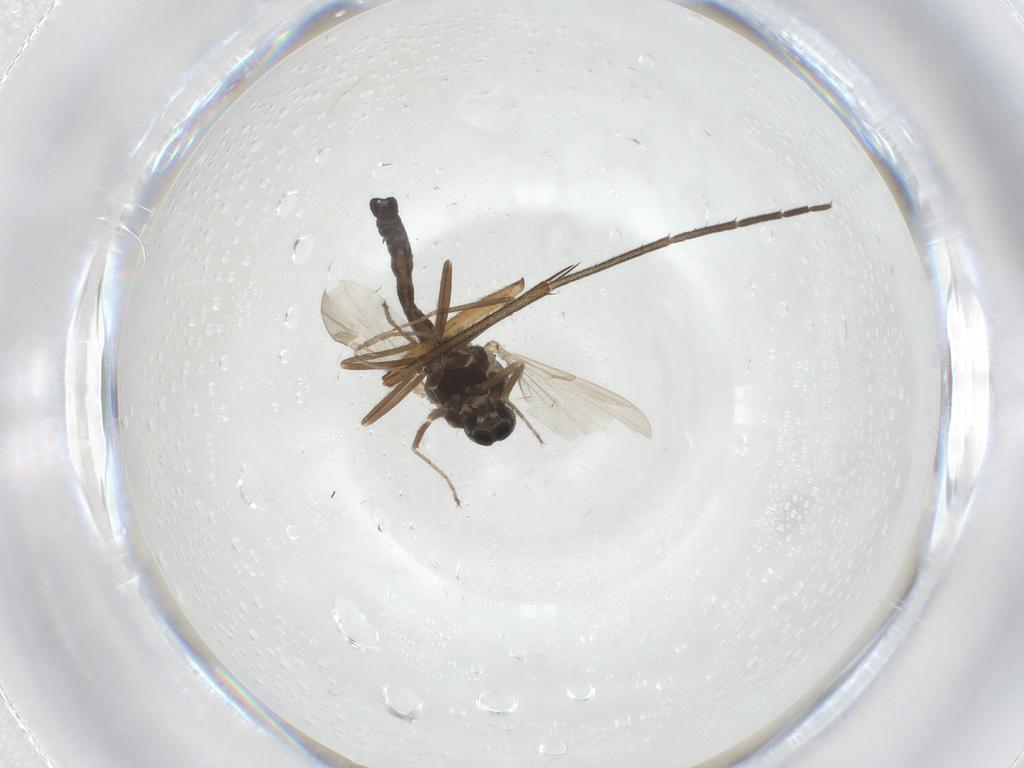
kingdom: Animalia
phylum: Arthropoda
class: Insecta
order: Diptera
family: Ceratopogonidae
